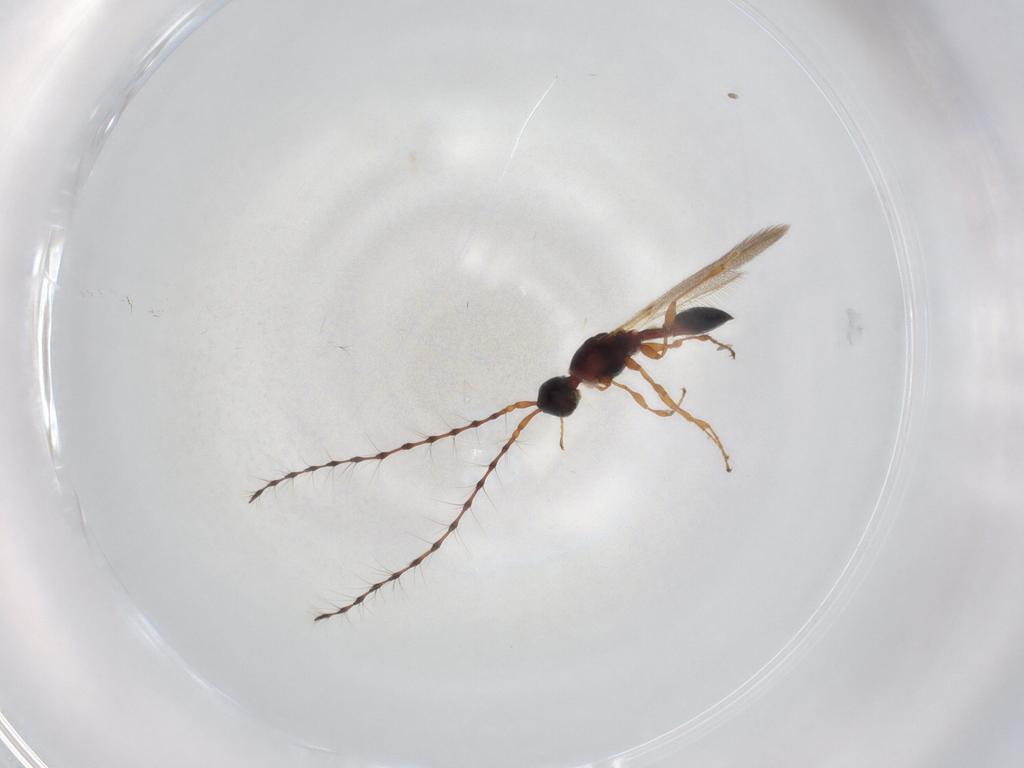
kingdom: Animalia
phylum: Arthropoda
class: Insecta
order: Hymenoptera
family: Diapriidae
